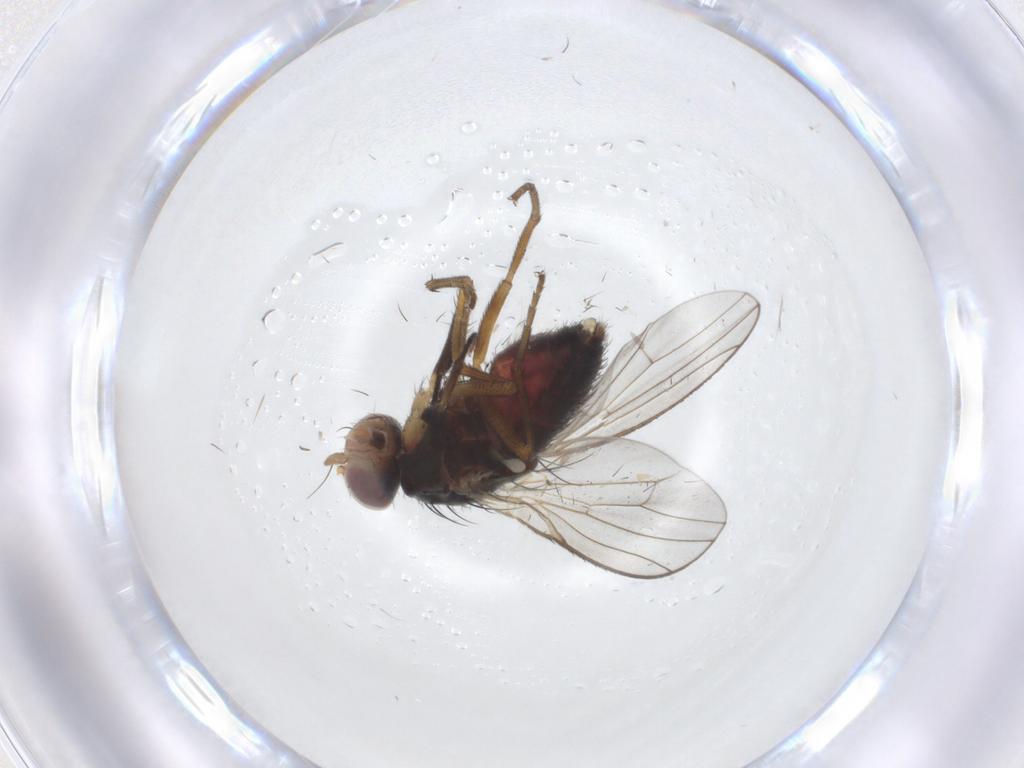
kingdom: Animalia
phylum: Arthropoda
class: Insecta
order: Diptera
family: Heleomyzidae
